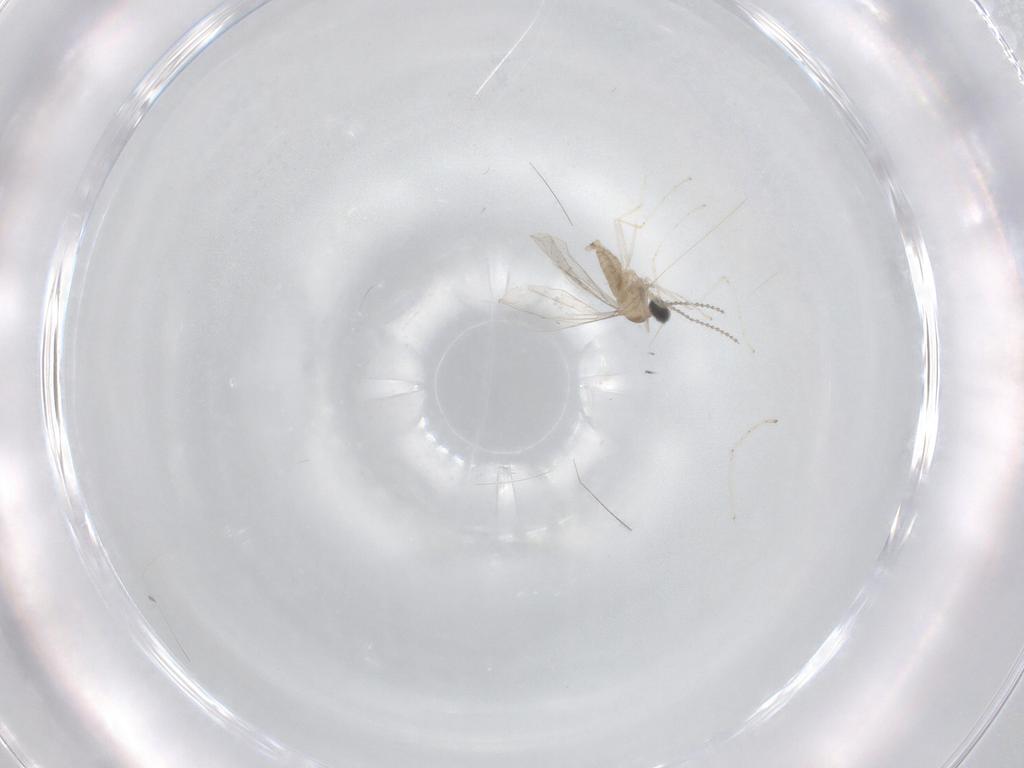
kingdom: Animalia
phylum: Arthropoda
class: Insecta
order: Diptera
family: Cecidomyiidae
